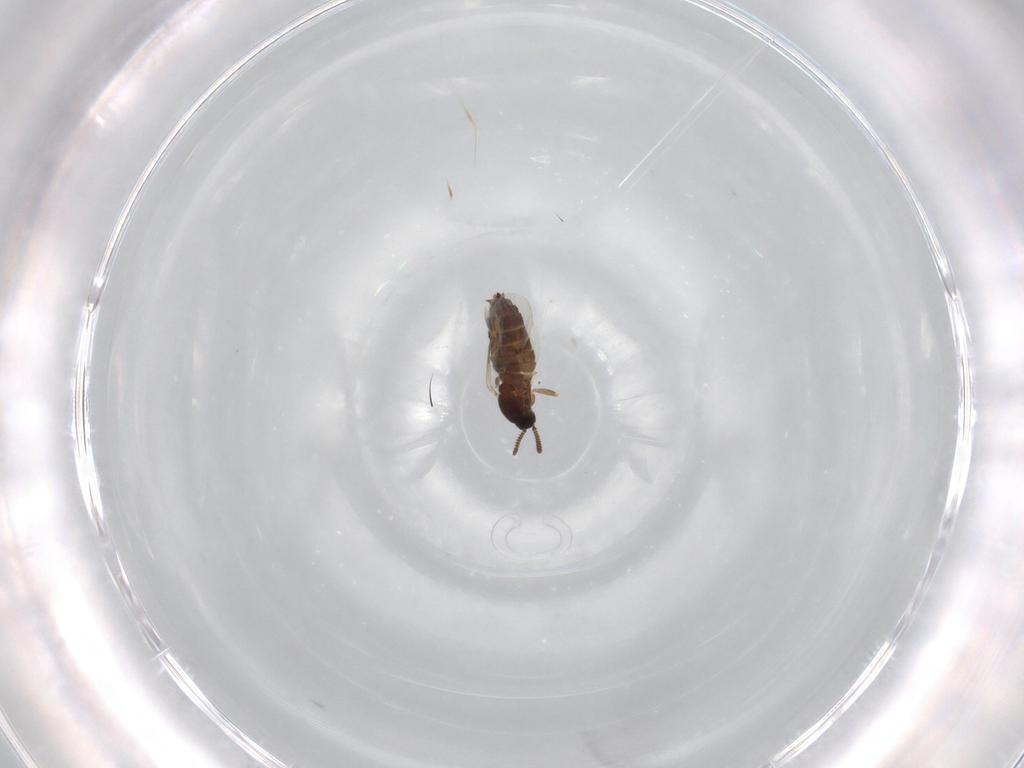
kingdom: Animalia
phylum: Arthropoda
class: Insecta
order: Diptera
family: Scatopsidae
